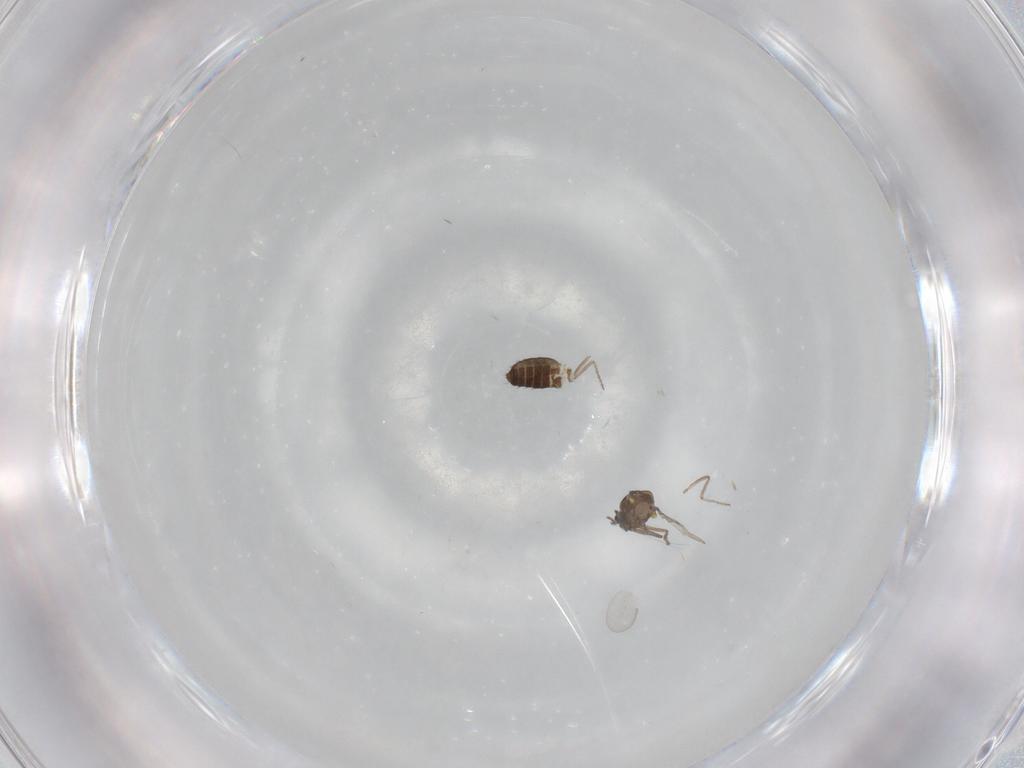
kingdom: Animalia
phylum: Arthropoda
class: Insecta
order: Diptera
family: Ceratopogonidae
